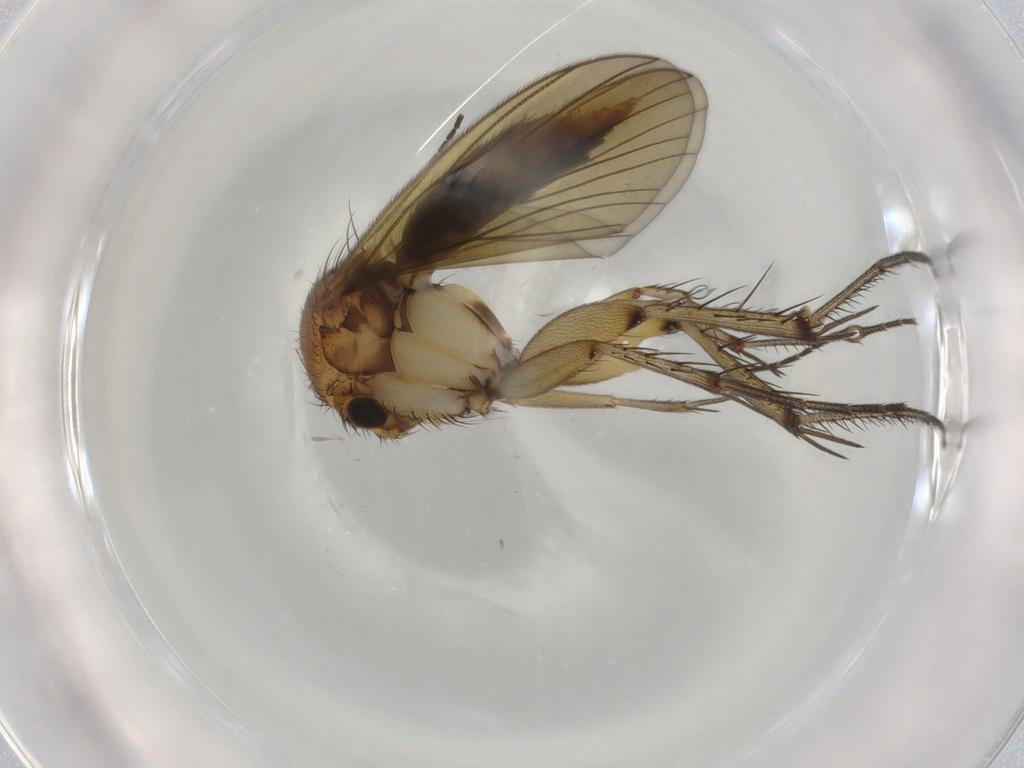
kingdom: Animalia
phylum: Arthropoda
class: Insecta
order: Diptera
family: Mycetophilidae
